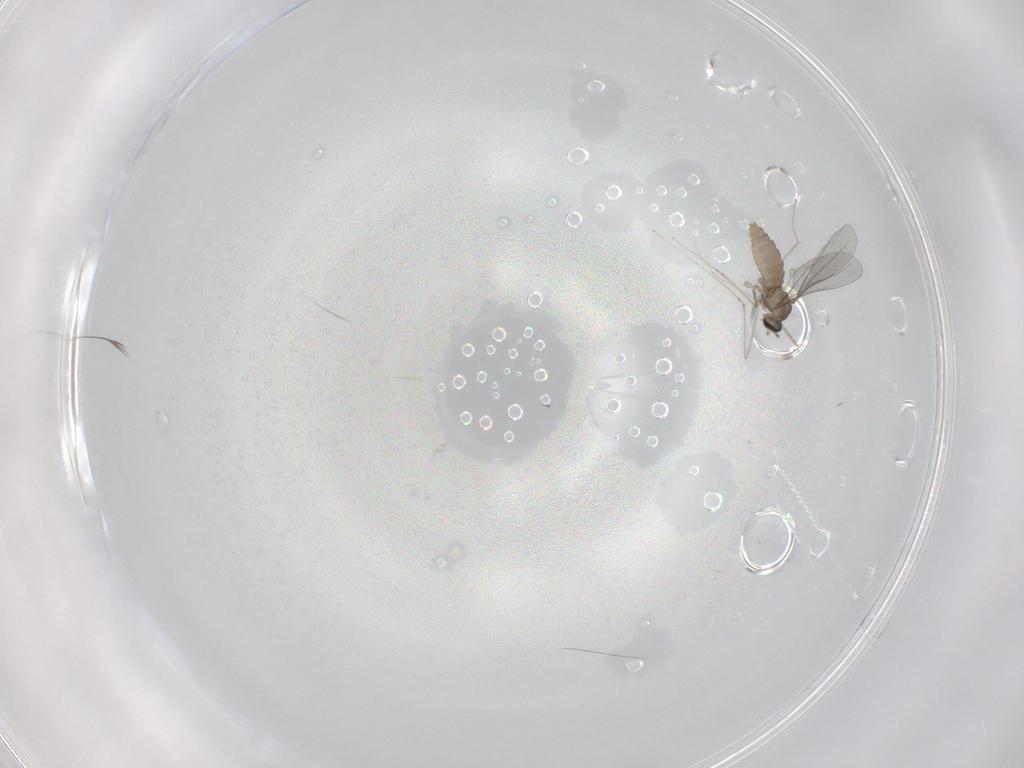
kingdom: Animalia
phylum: Arthropoda
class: Insecta
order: Diptera
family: Cecidomyiidae
